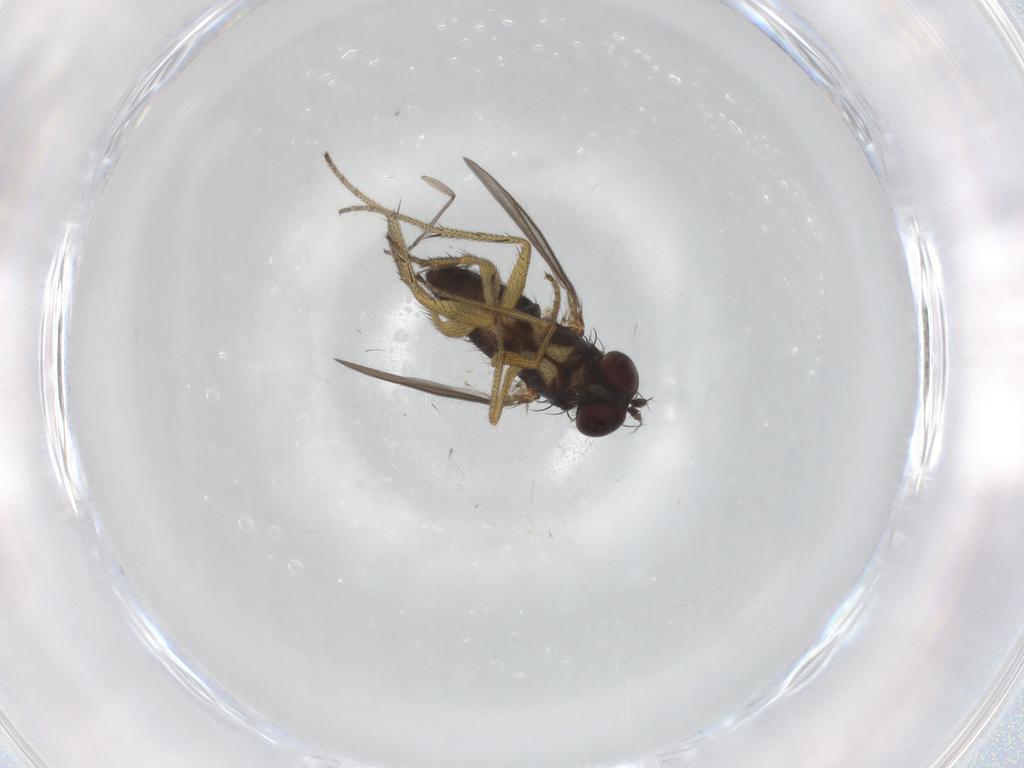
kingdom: Animalia
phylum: Arthropoda
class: Insecta
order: Diptera
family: Dolichopodidae
